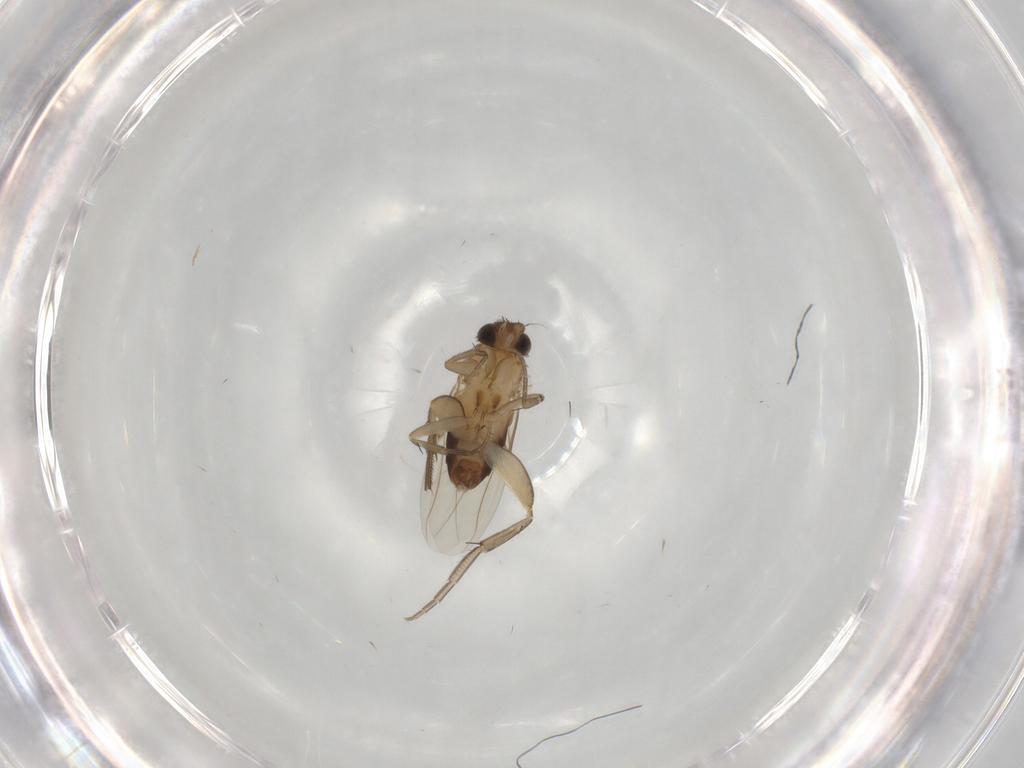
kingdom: Animalia
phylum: Arthropoda
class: Insecta
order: Diptera
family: Phoridae
